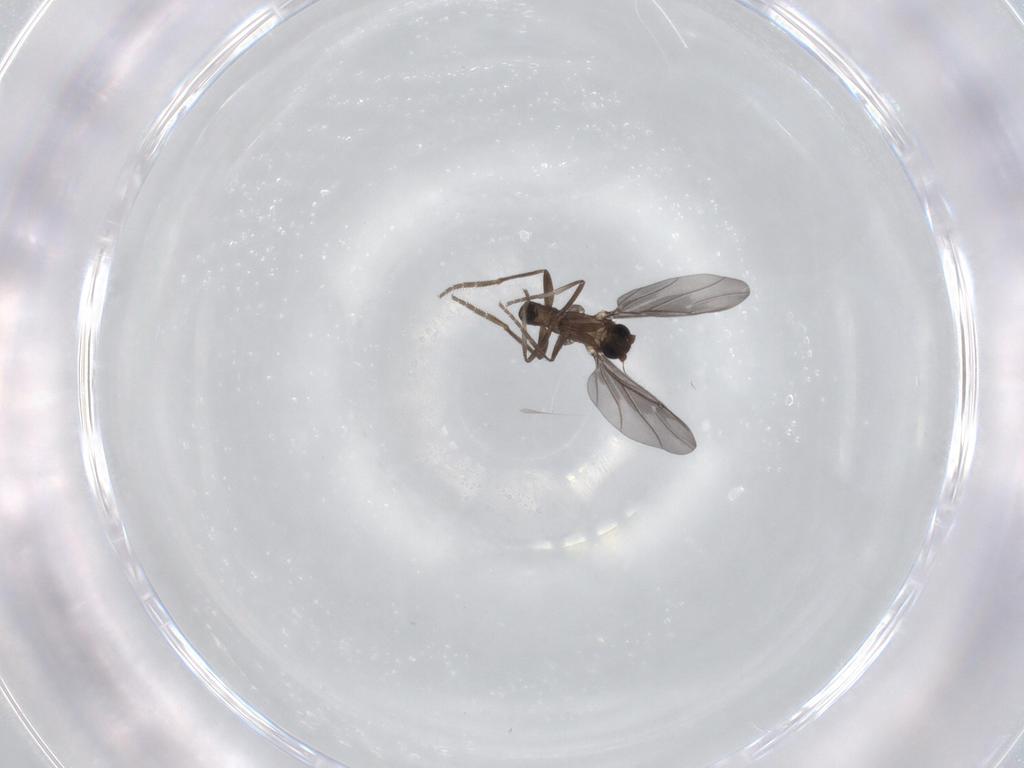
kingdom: Animalia
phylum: Arthropoda
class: Insecta
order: Diptera
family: Phoridae
